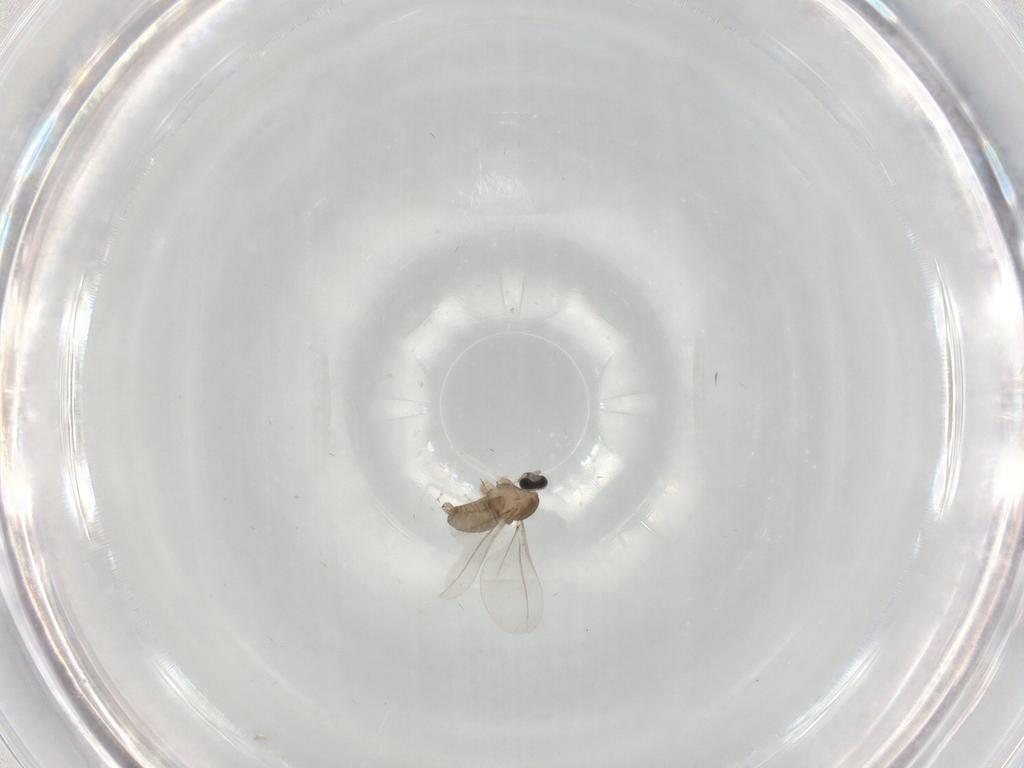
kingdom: Animalia
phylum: Arthropoda
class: Insecta
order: Diptera
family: Cecidomyiidae
